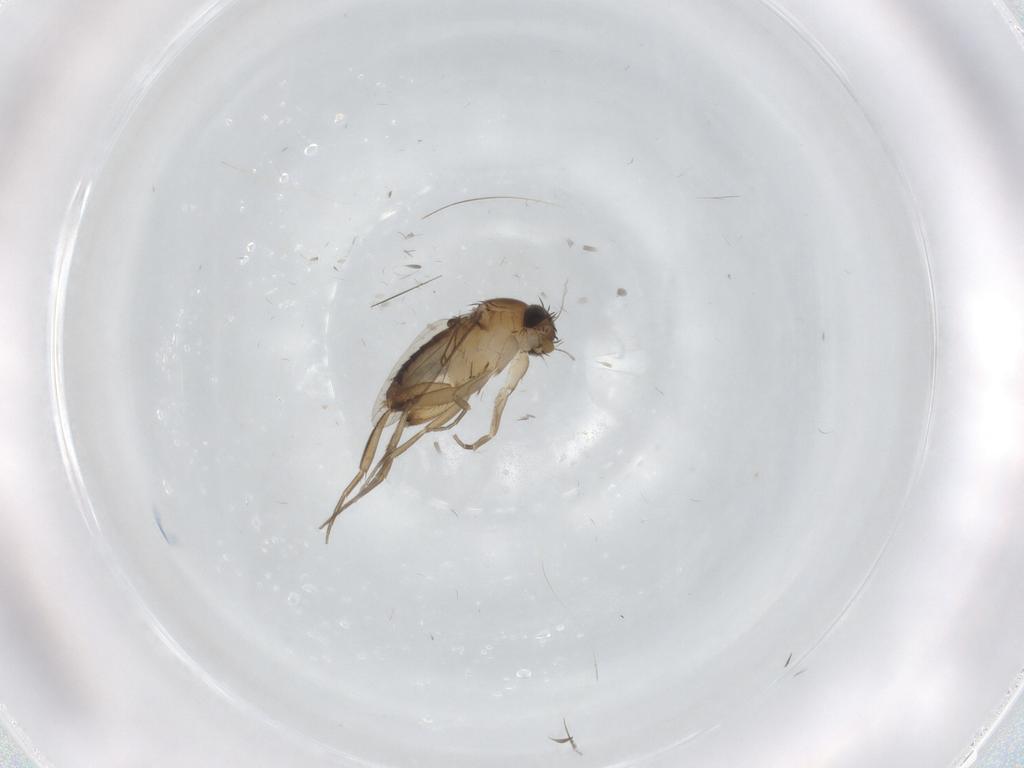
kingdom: Animalia
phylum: Arthropoda
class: Insecta
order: Diptera
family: Phoridae
